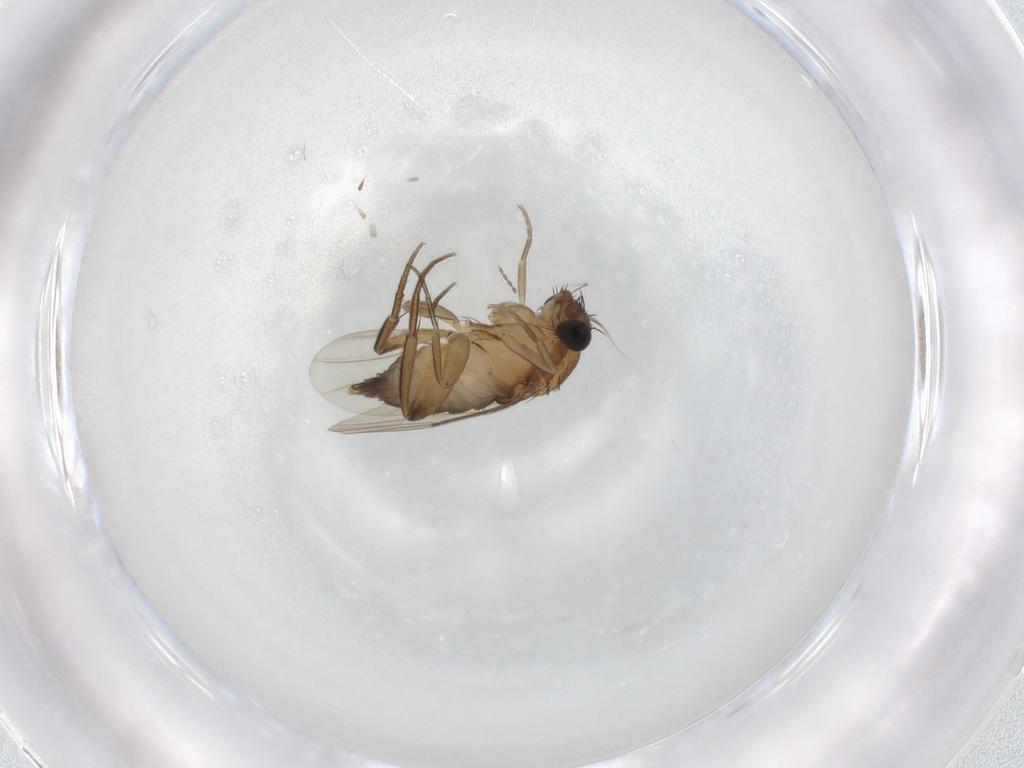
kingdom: Animalia
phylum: Arthropoda
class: Insecta
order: Diptera
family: Phoridae
